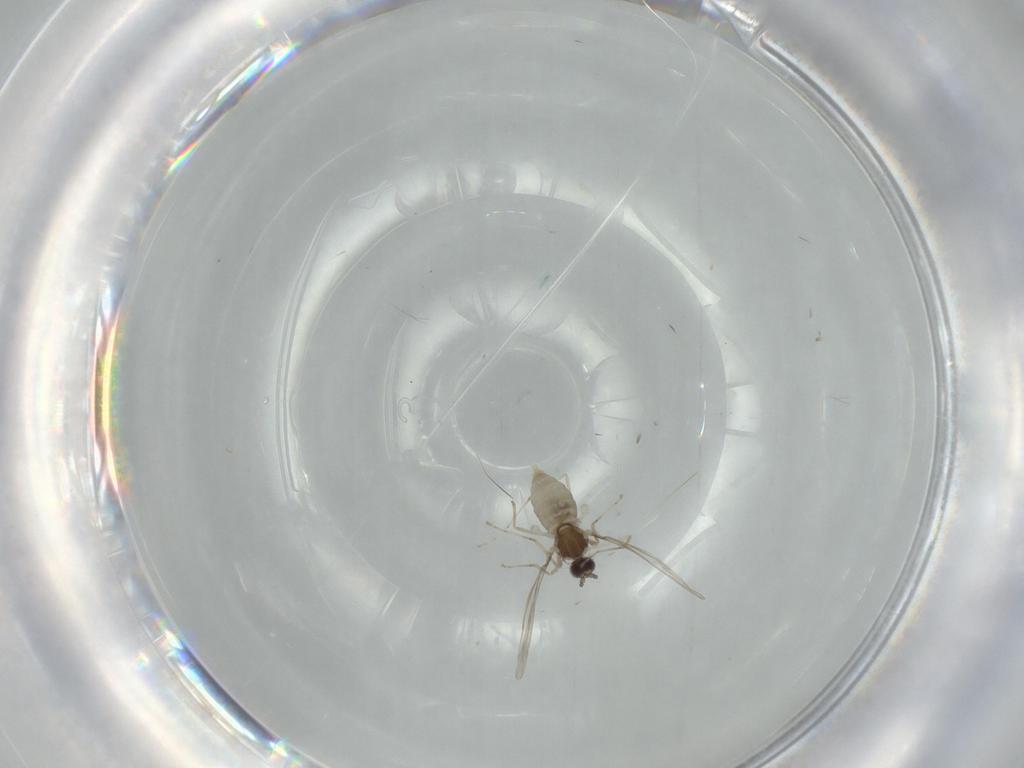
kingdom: Animalia
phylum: Arthropoda
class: Insecta
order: Diptera
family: Cecidomyiidae
